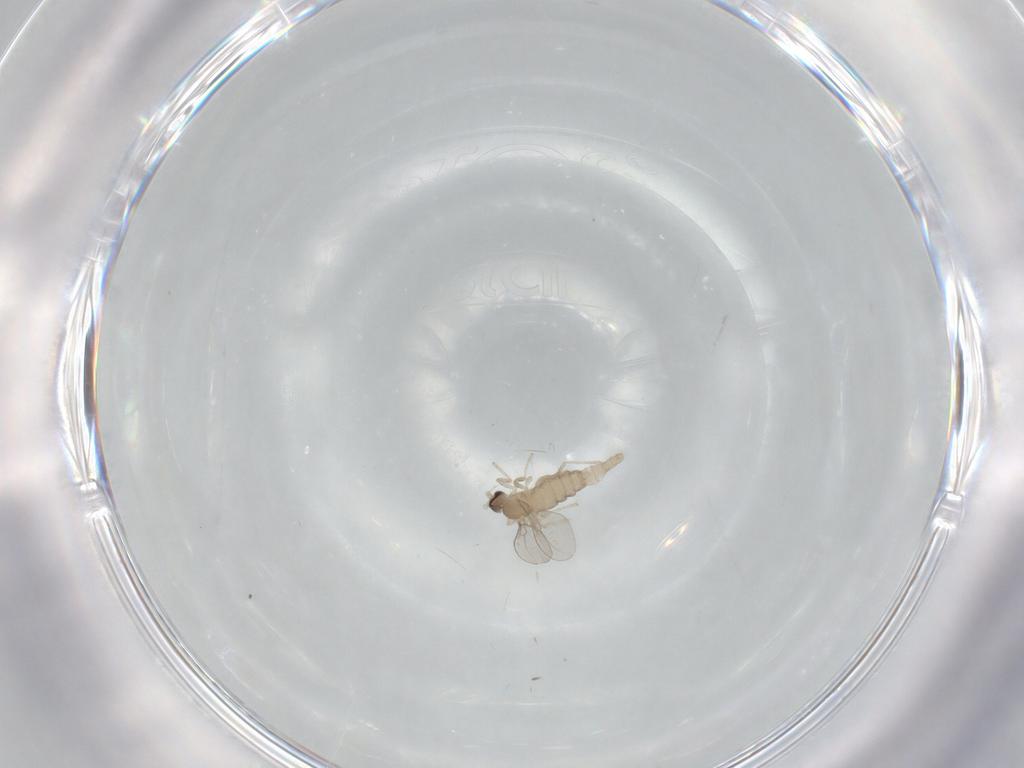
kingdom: Animalia
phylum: Arthropoda
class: Insecta
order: Diptera
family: Cecidomyiidae
